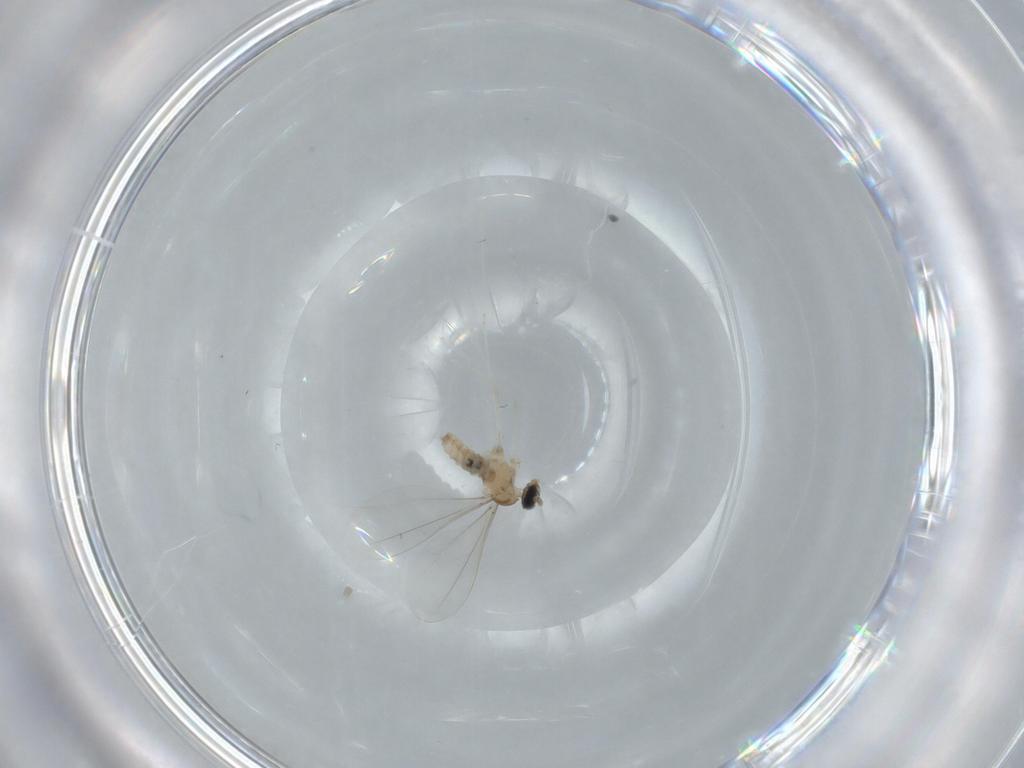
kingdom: Animalia
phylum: Arthropoda
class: Insecta
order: Diptera
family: Cecidomyiidae
